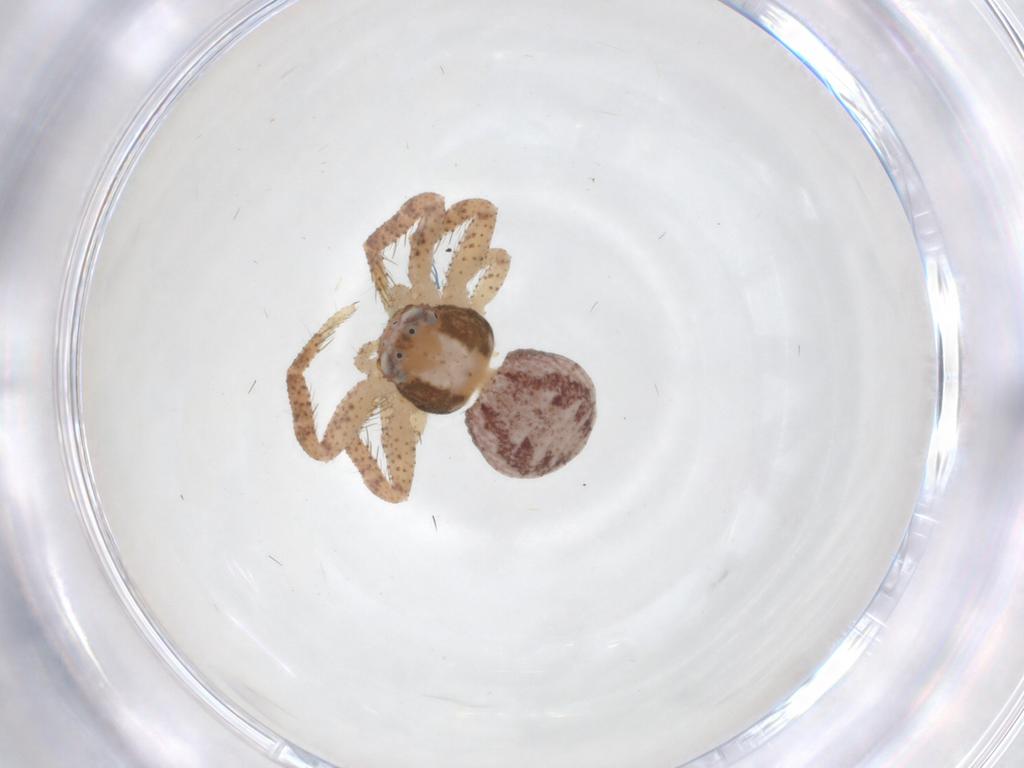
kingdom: Animalia
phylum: Arthropoda
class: Arachnida
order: Araneae
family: Thomisidae
